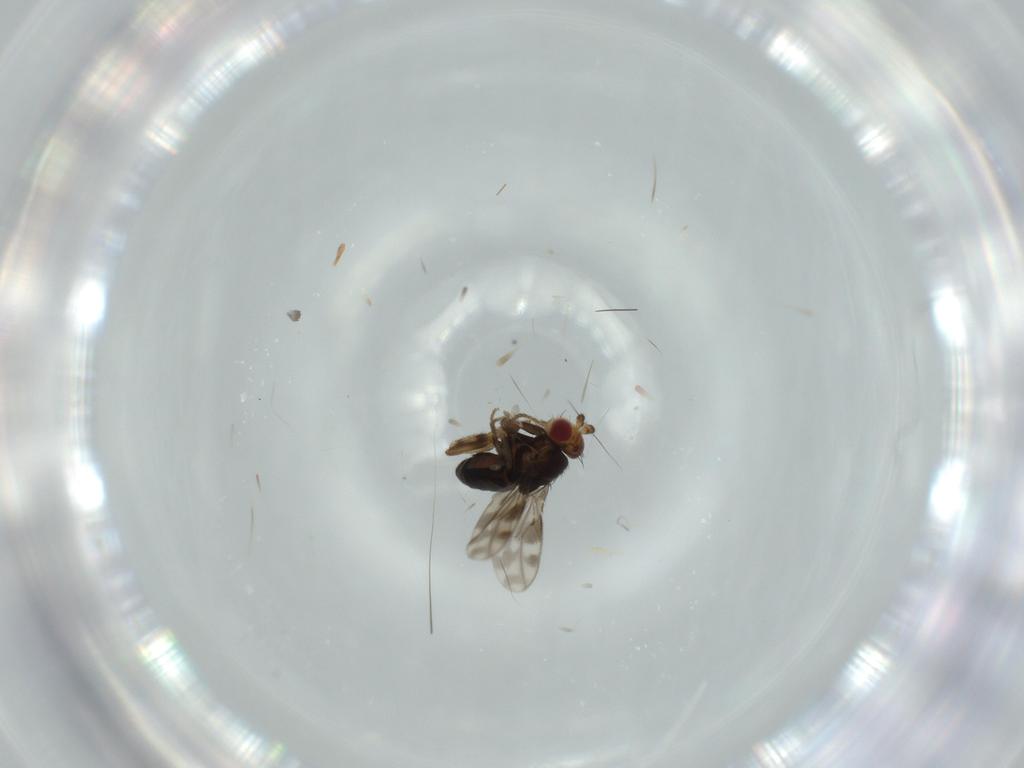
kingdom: Animalia
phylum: Arthropoda
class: Insecta
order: Diptera
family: Sphaeroceridae
